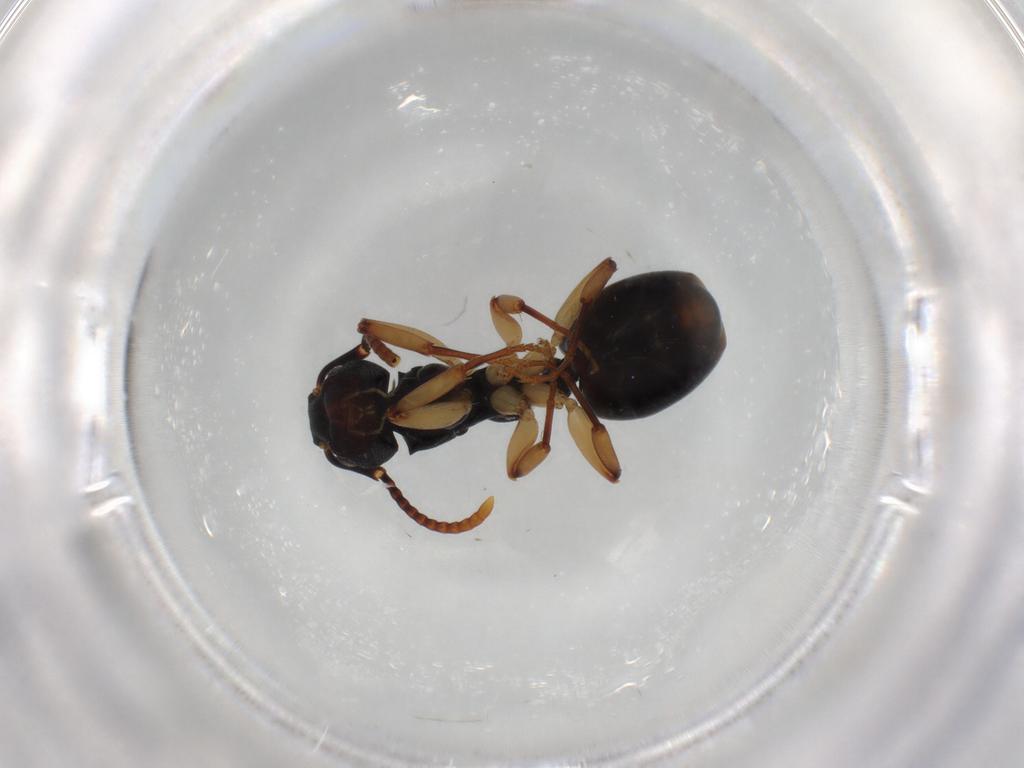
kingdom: Animalia
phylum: Arthropoda
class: Insecta
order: Hymenoptera
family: Formicidae
